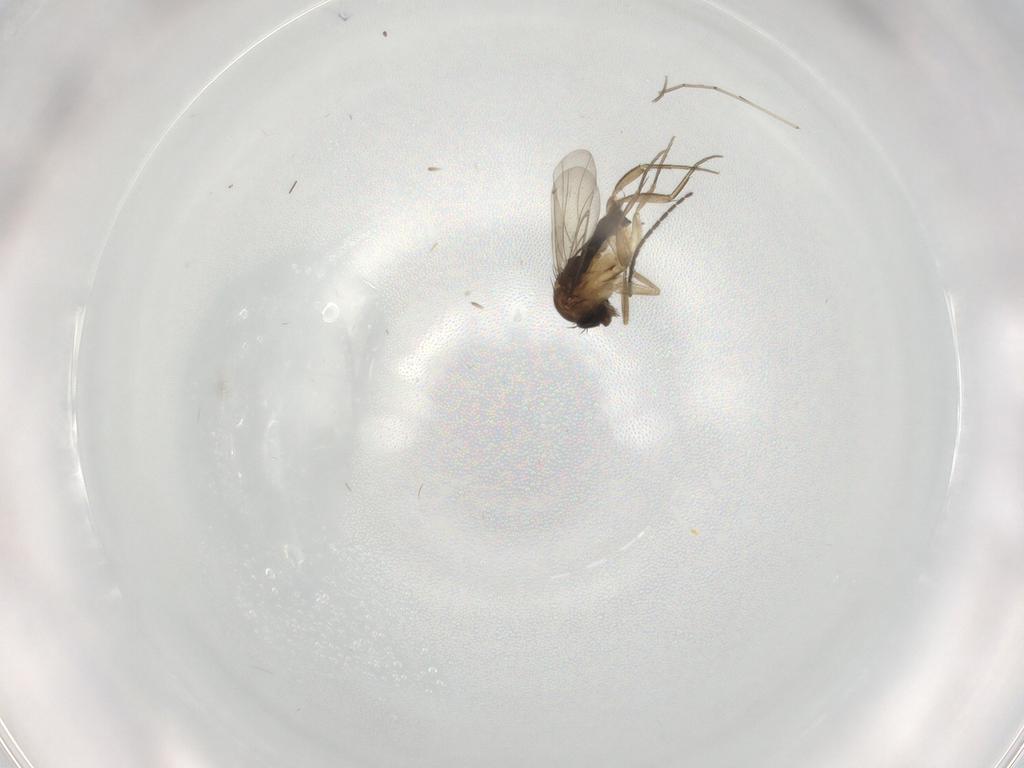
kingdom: Animalia
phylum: Arthropoda
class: Insecta
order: Diptera
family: Chironomidae
